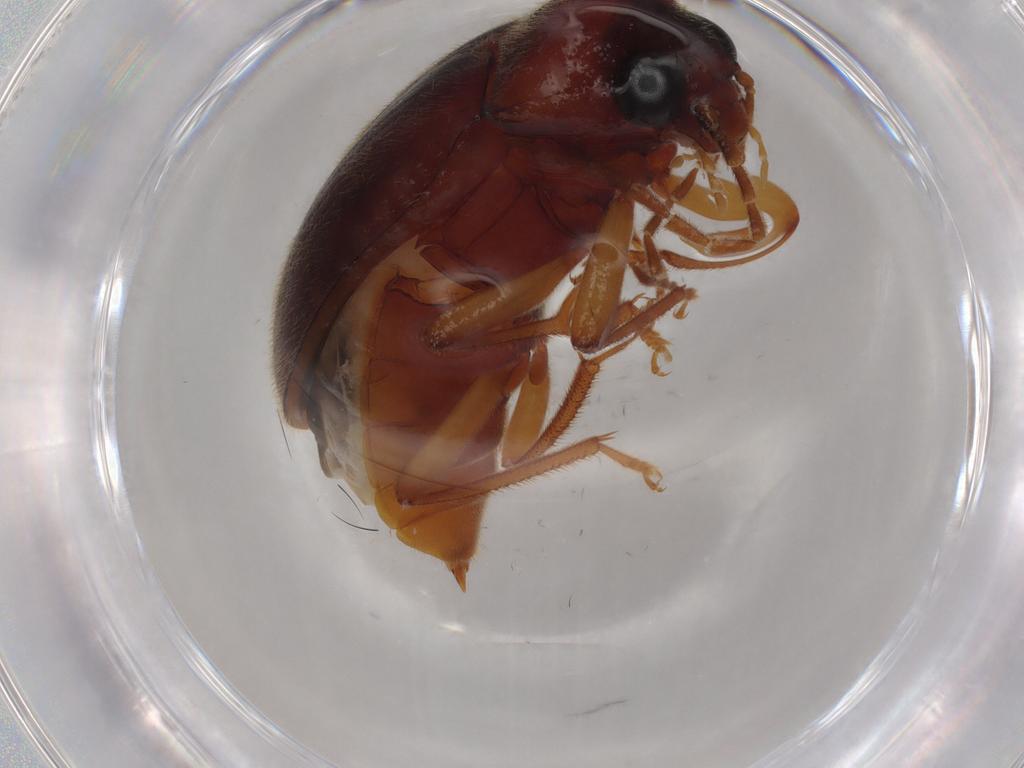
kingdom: Animalia
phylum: Arthropoda
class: Insecta
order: Coleoptera
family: Ptilodactylidae
